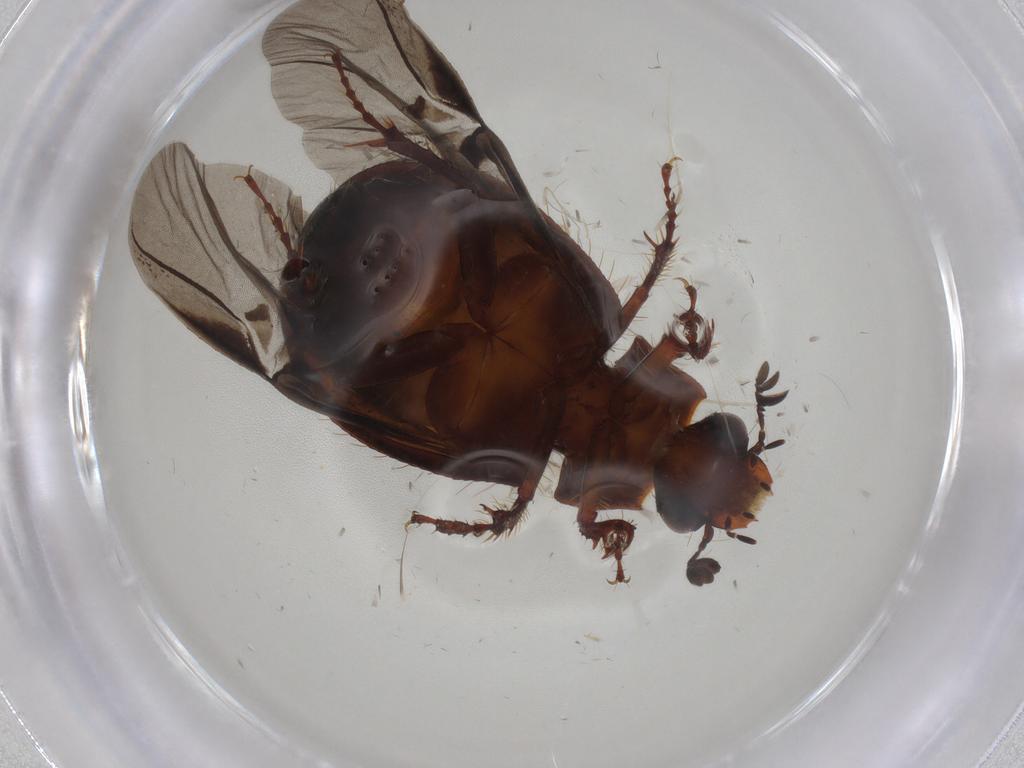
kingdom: Animalia
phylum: Arthropoda
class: Insecta
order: Coleoptera
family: Hybosoridae
